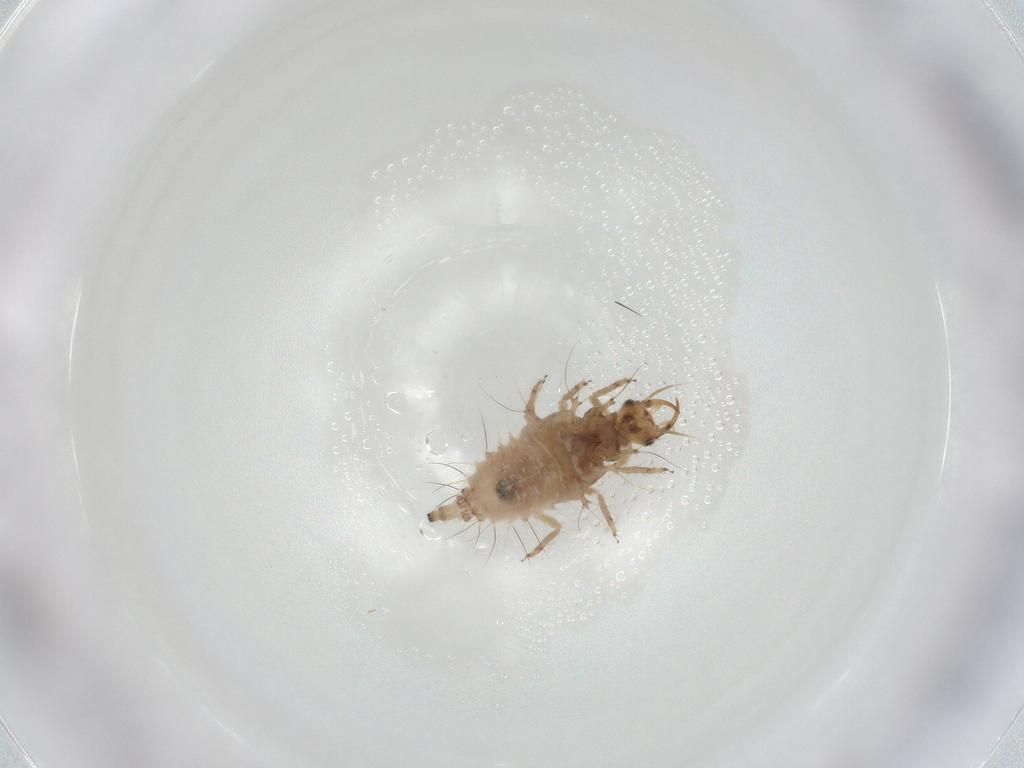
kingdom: Animalia
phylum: Arthropoda
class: Insecta
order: Neuroptera
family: Chrysopidae
